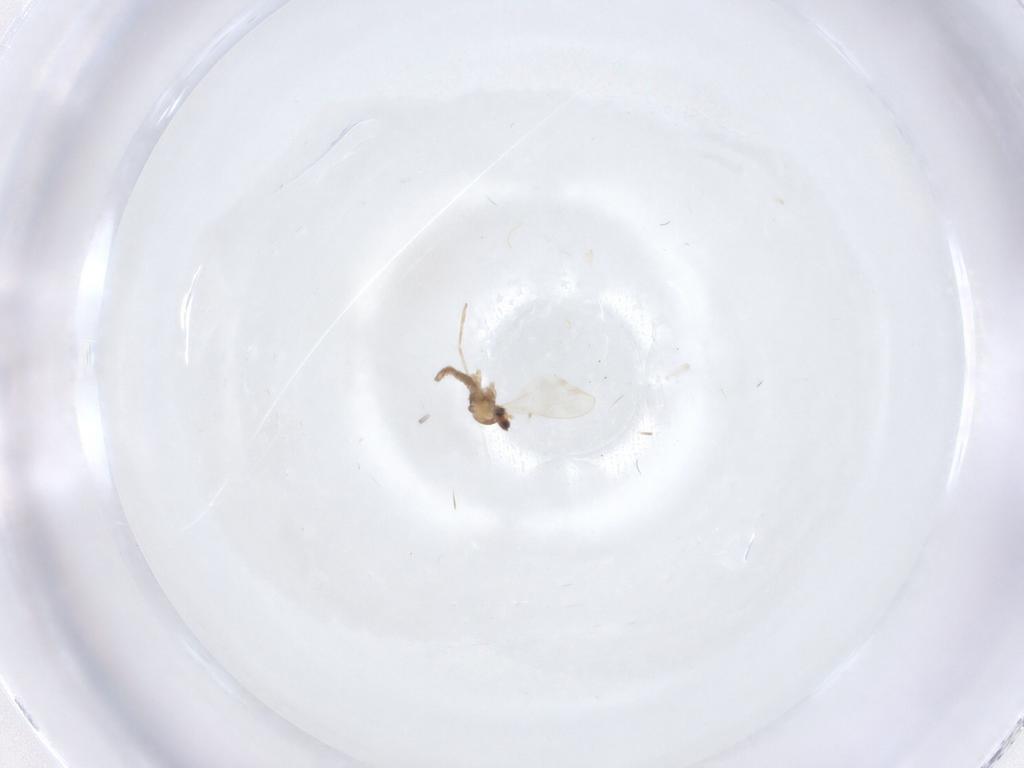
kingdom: Animalia
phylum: Arthropoda
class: Insecta
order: Diptera
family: Cecidomyiidae
